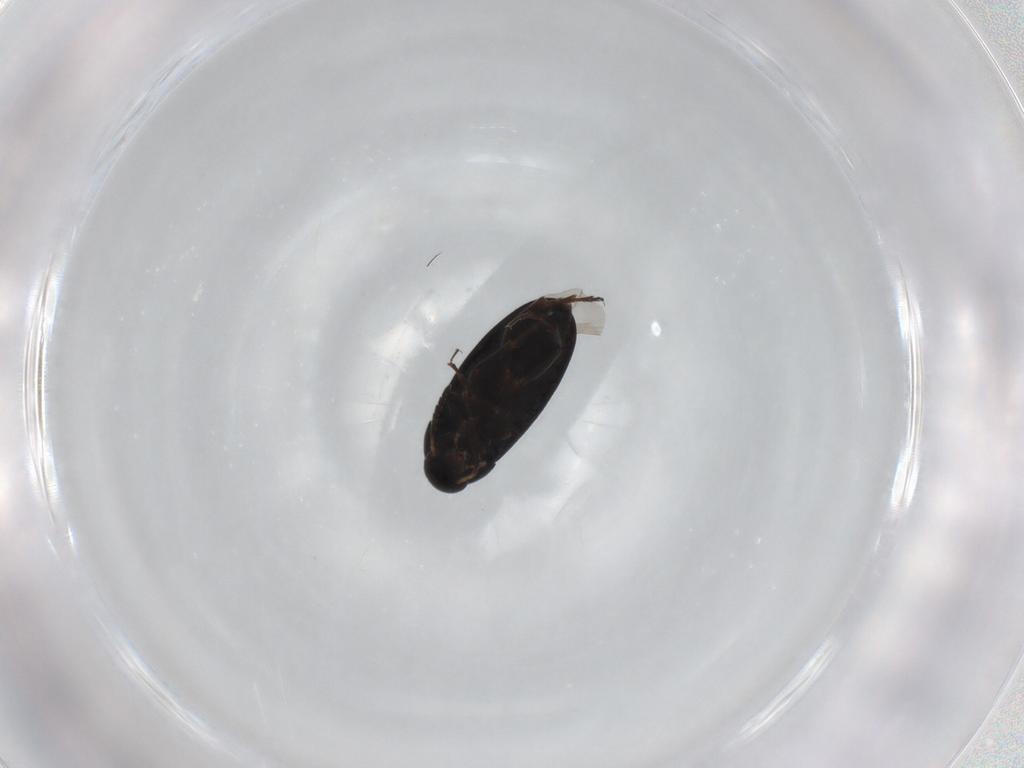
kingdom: Animalia
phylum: Arthropoda
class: Insecta
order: Coleoptera
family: Scraptiidae
